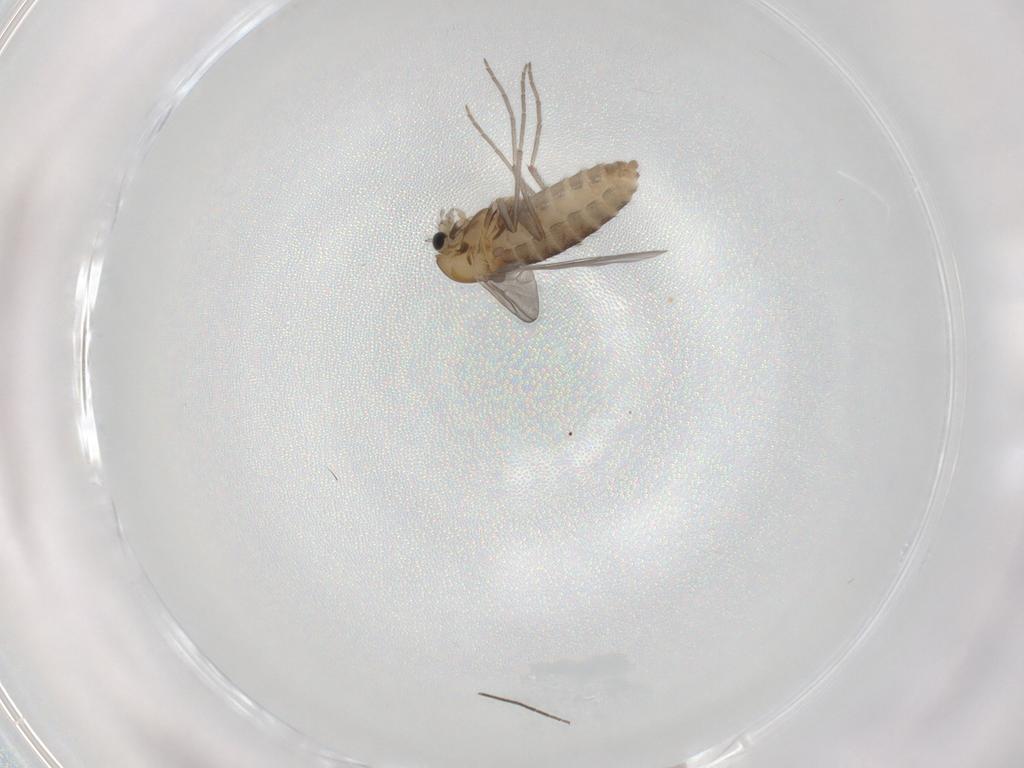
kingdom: Animalia
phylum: Arthropoda
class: Insecta
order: Diptera
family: Chironomidae
